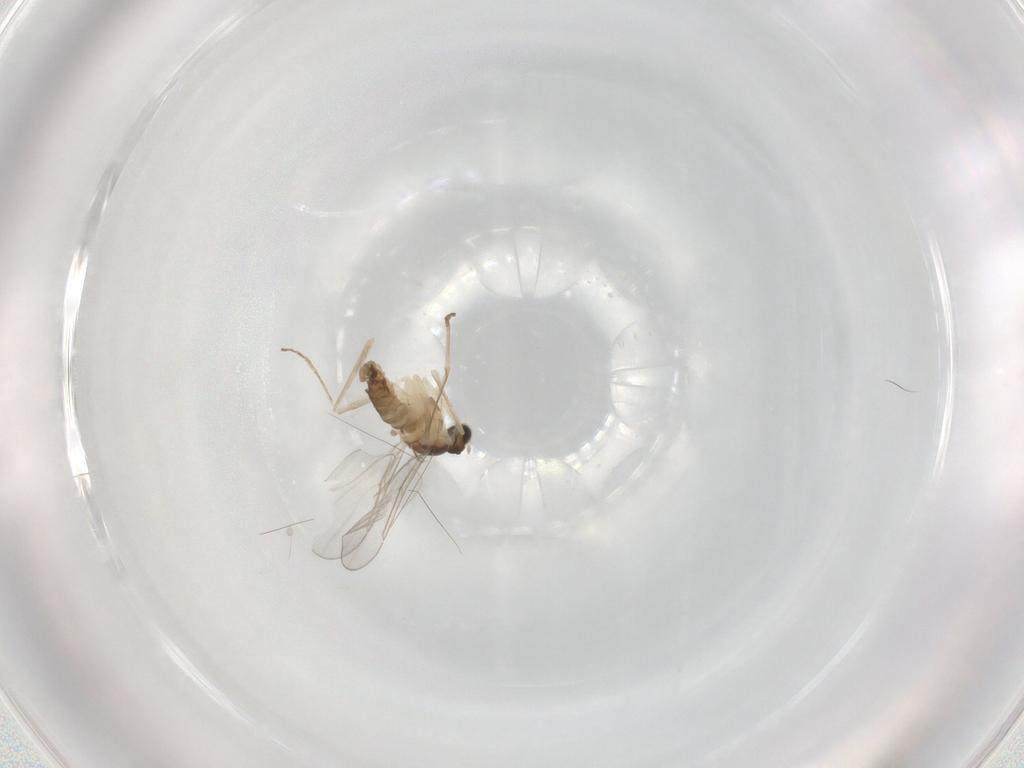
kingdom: Animalia
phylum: Arthropoda
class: Insecta
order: Diptera
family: Cecidomyiidae
